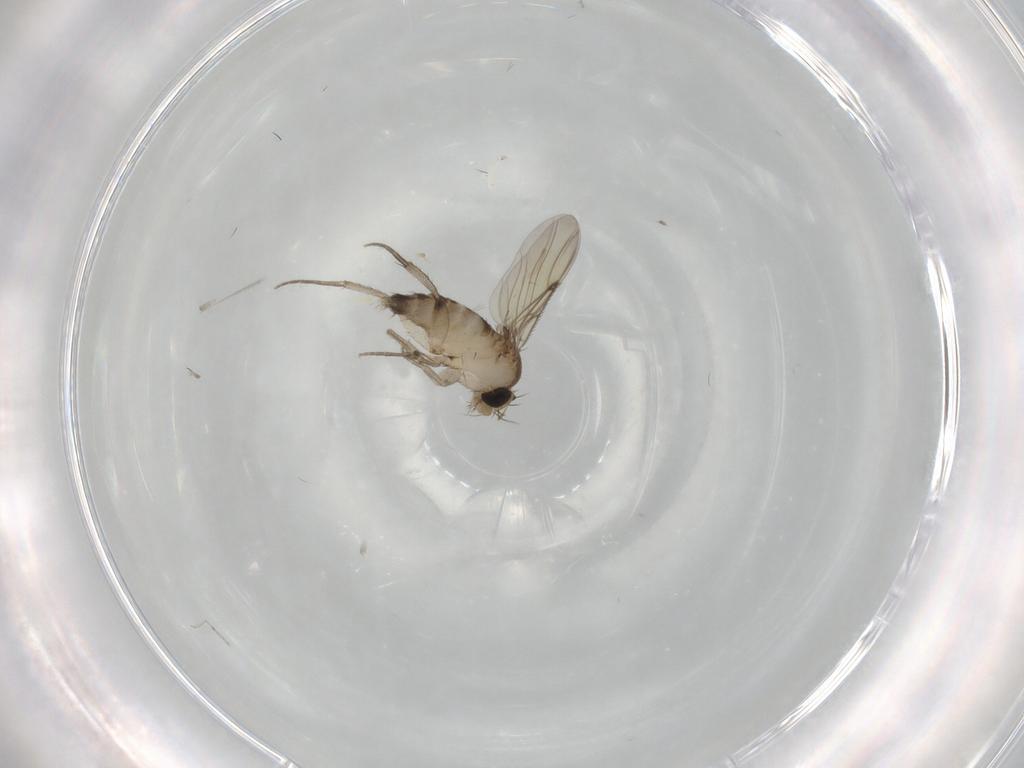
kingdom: Animalia
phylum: Arthropoda
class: Insecta
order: Diptera
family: Phoridae
